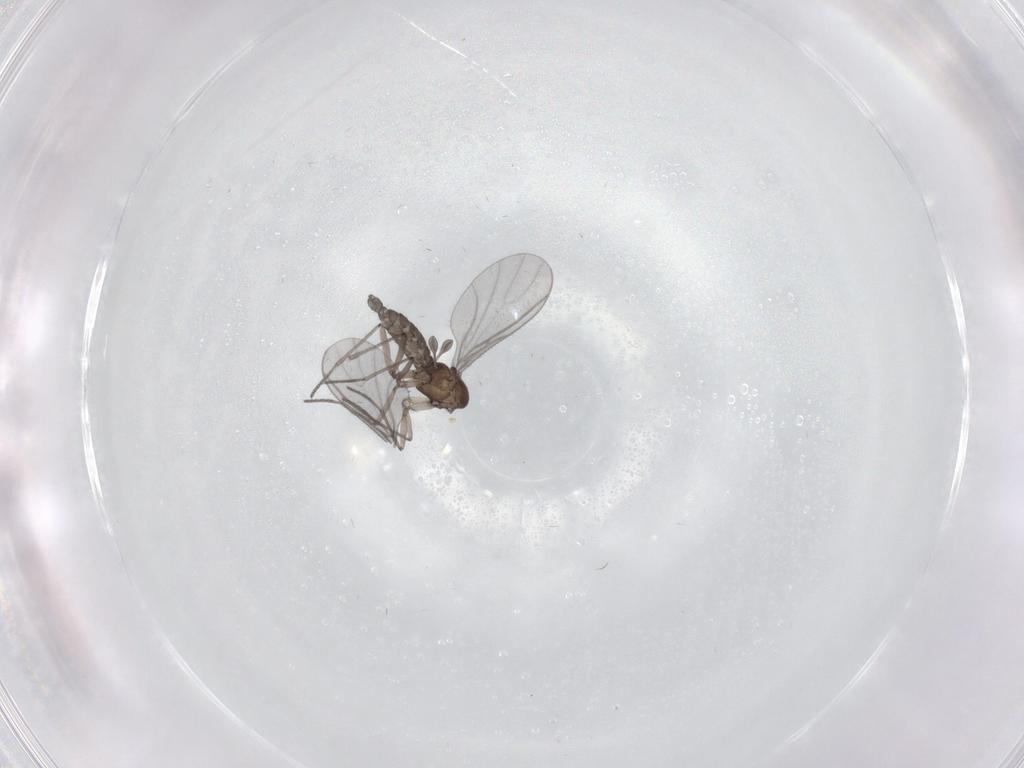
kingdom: Animalia
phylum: Arthropoda
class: Insecta
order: Diptera
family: Sciaridae
